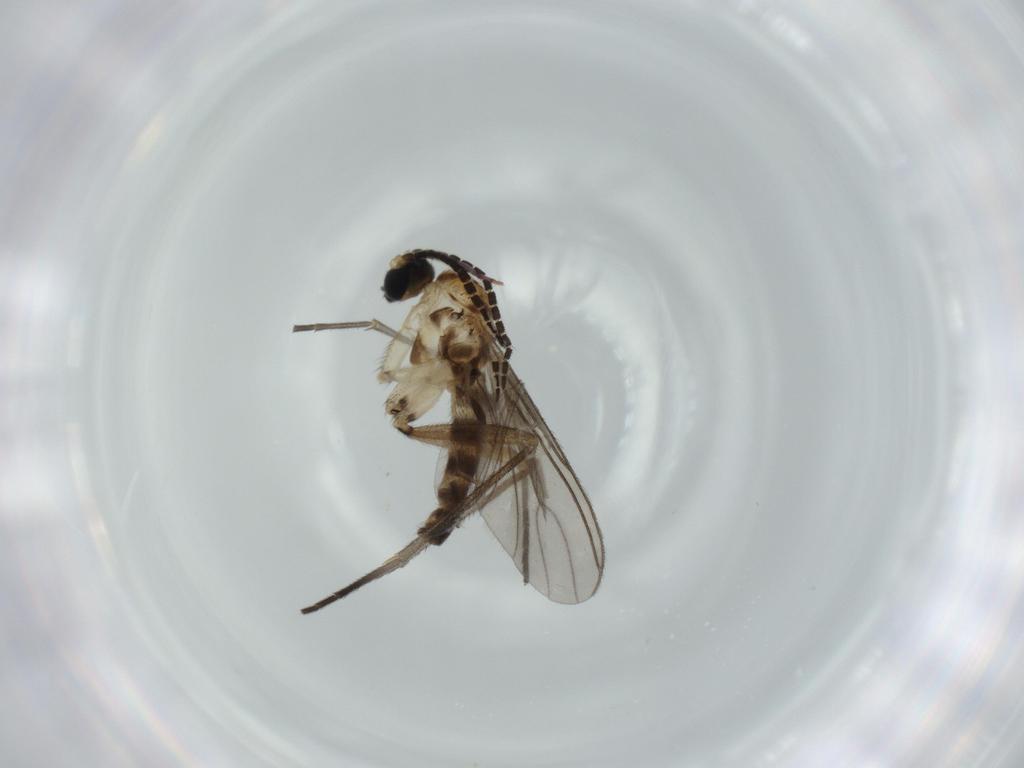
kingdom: Animalia
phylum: Arthropoda
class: Insecta
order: Diptera
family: Sciaridae
